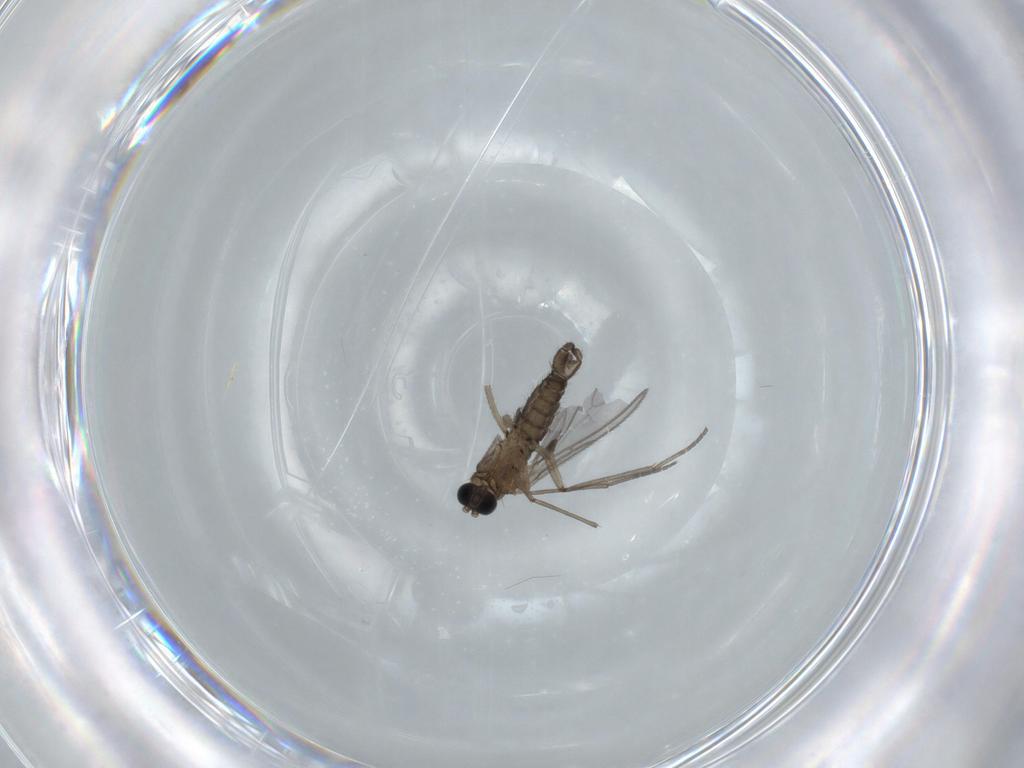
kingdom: Animalia
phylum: Arthropoda
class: Insecta
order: Diptera
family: Sciaridae
